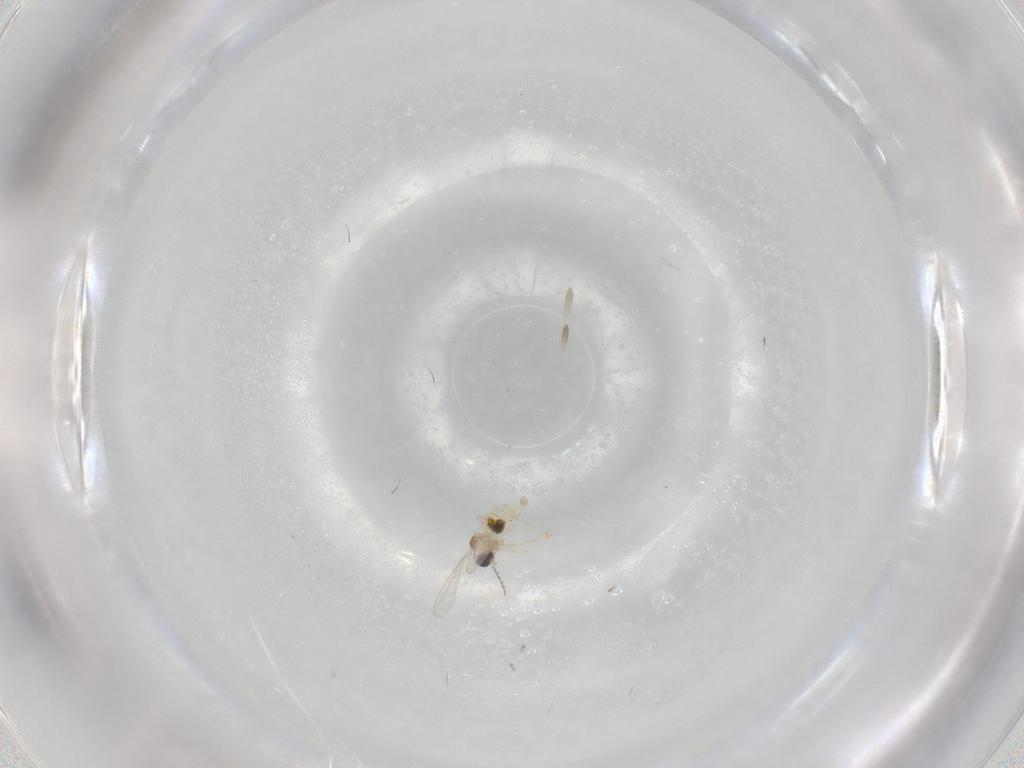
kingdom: Animalia
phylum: Arthropoda
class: Insecta
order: Diptera
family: Cecidomyiidae
